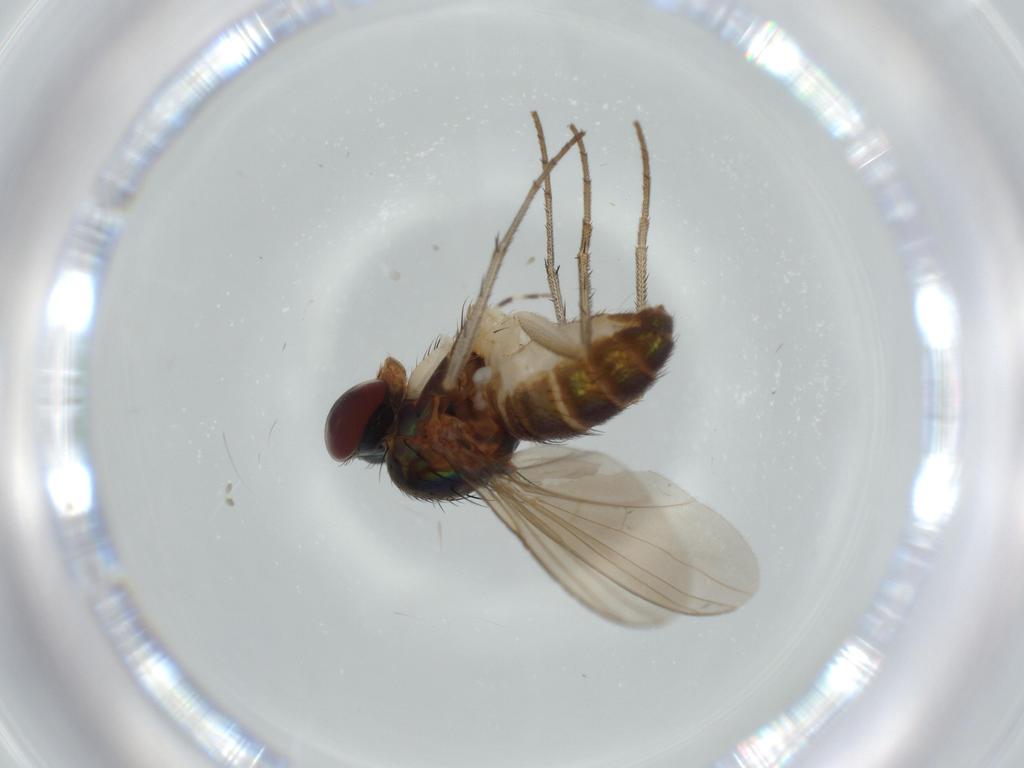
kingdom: Animalia
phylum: Arthropoda
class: Insecta
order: Diptera
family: Dolichopodidae
